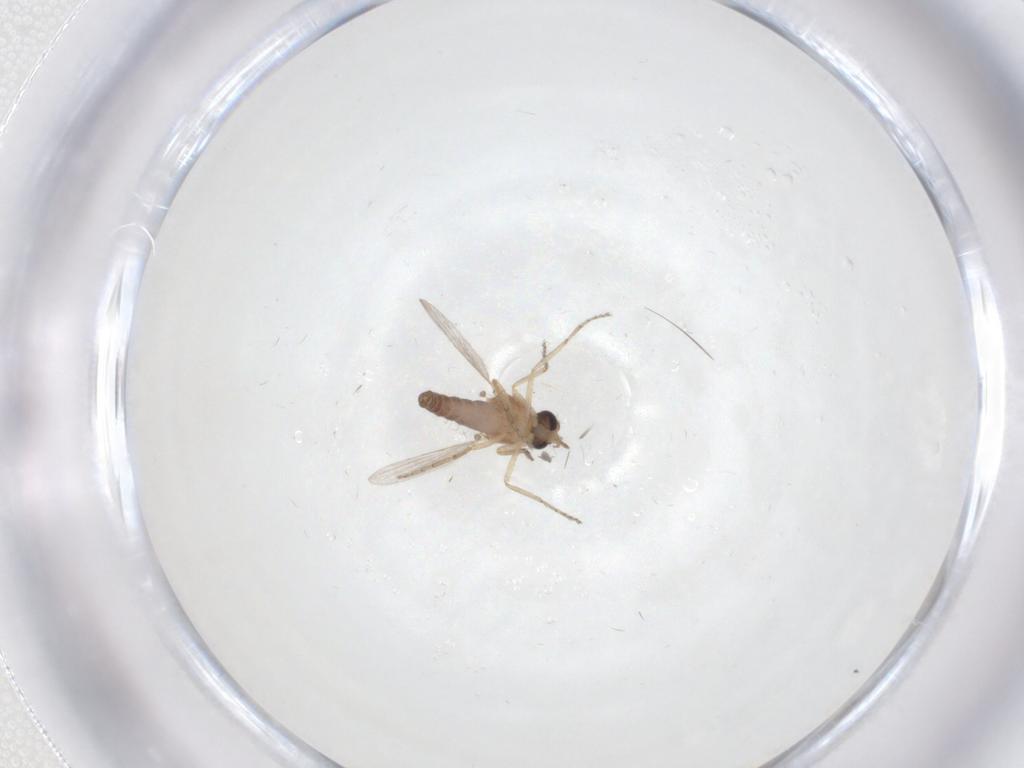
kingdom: Animalia
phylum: Arthropoda
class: Insecta
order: Diptera
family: Ceratopogonidae
